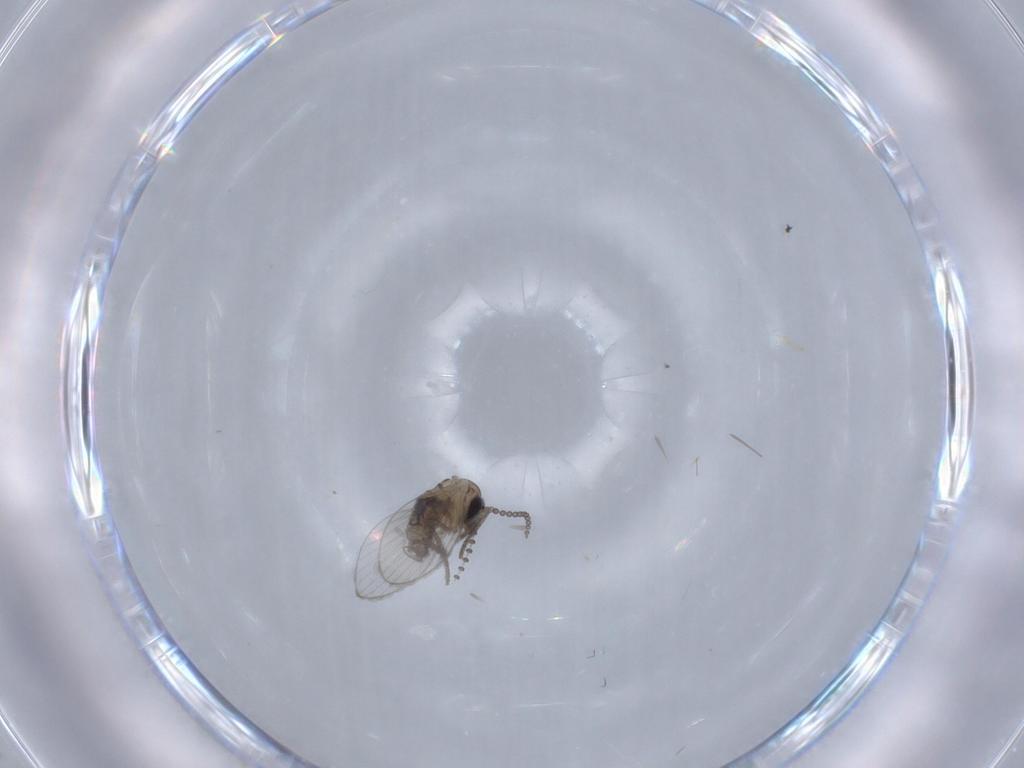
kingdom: Animalia
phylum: Arthropoda
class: Insecta
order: Diptera
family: Psychodidae
